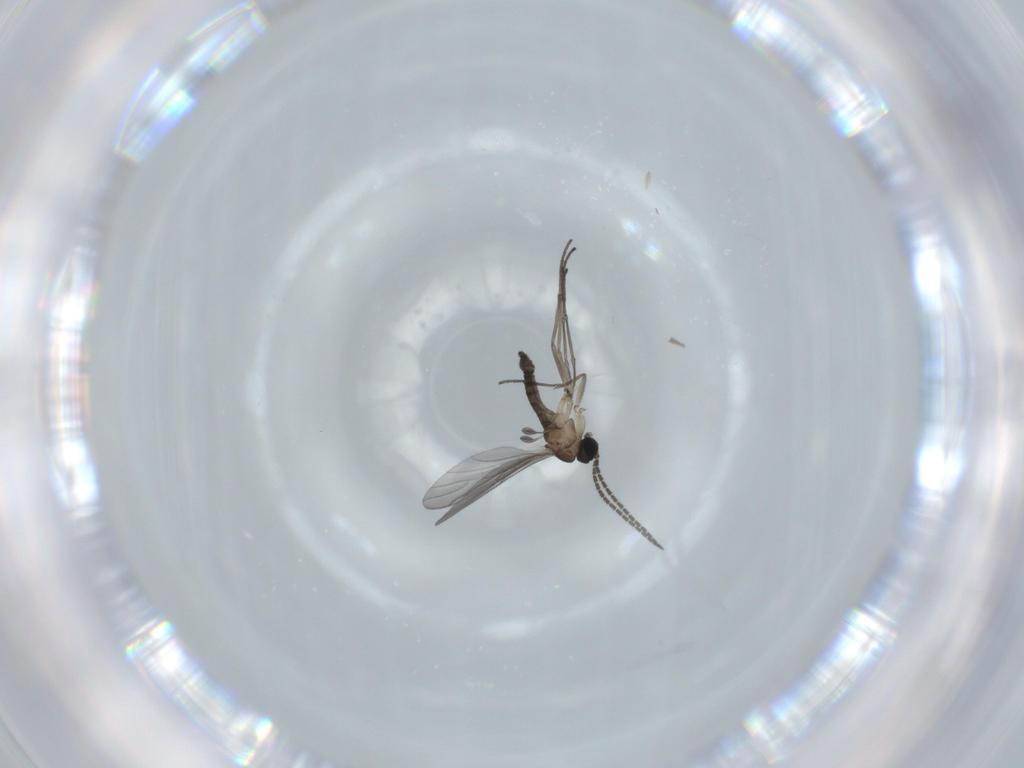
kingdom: Animalia
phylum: Arthropoda
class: Insecta
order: Diptera
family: Sciaridae
